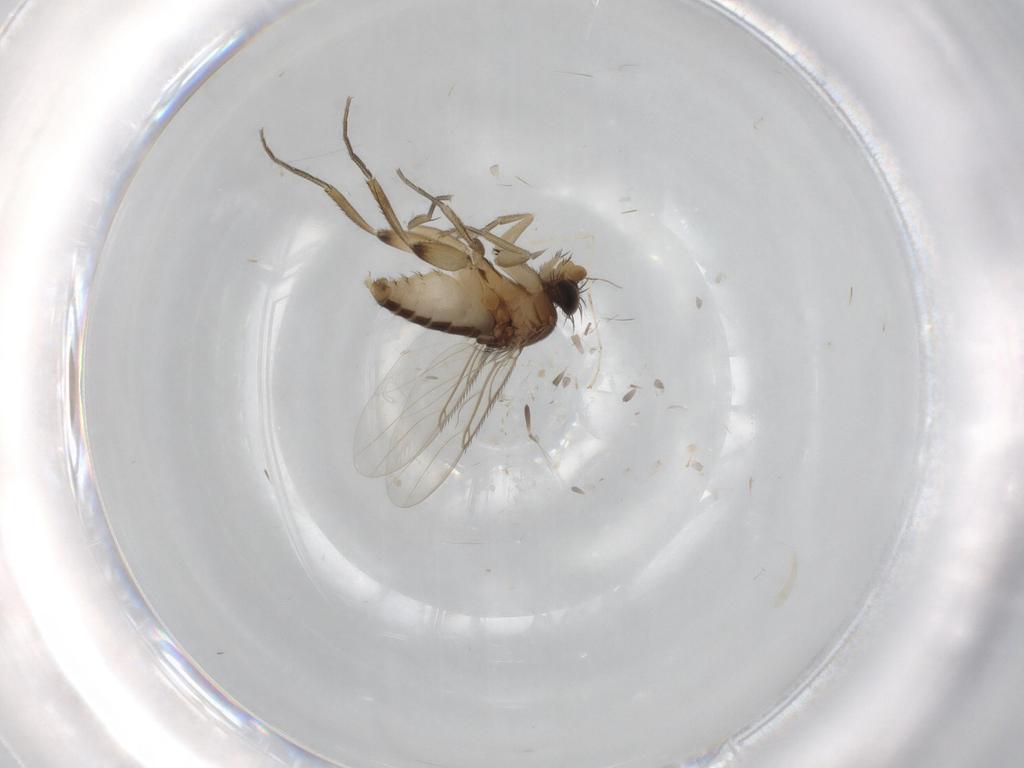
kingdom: Animalia
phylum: Arthropoda
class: Insecta
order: Diptera
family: Phoridae
